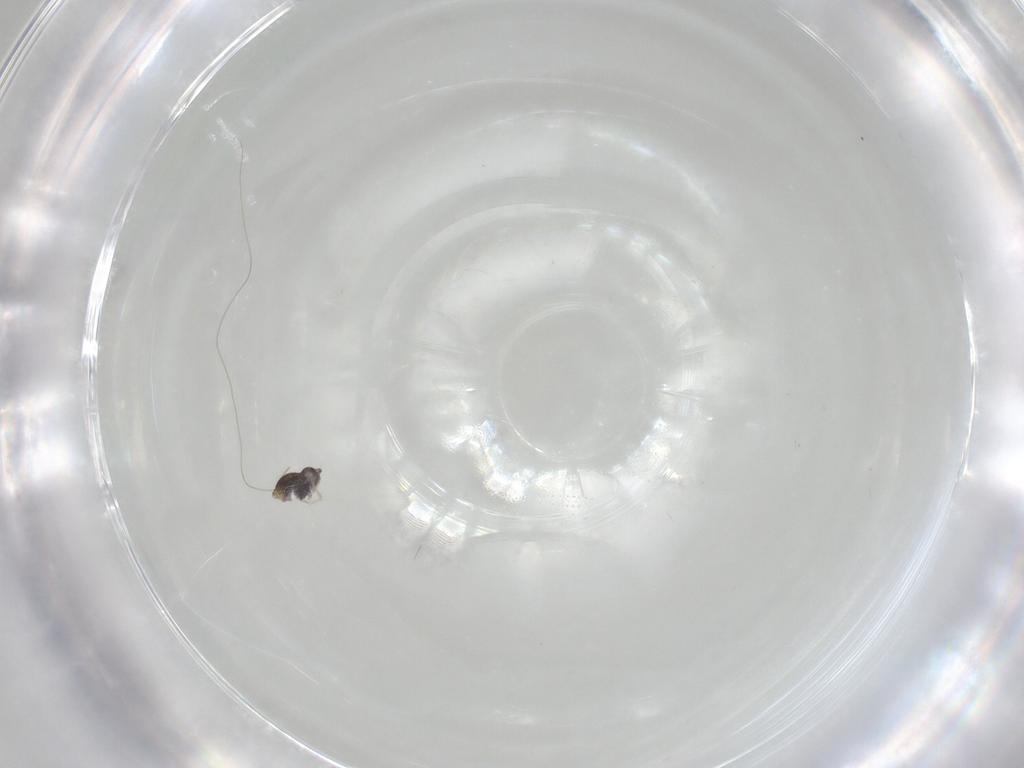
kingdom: Animalia
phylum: Arthropoda
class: Collembola
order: Symphypleona
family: Katiannidae
